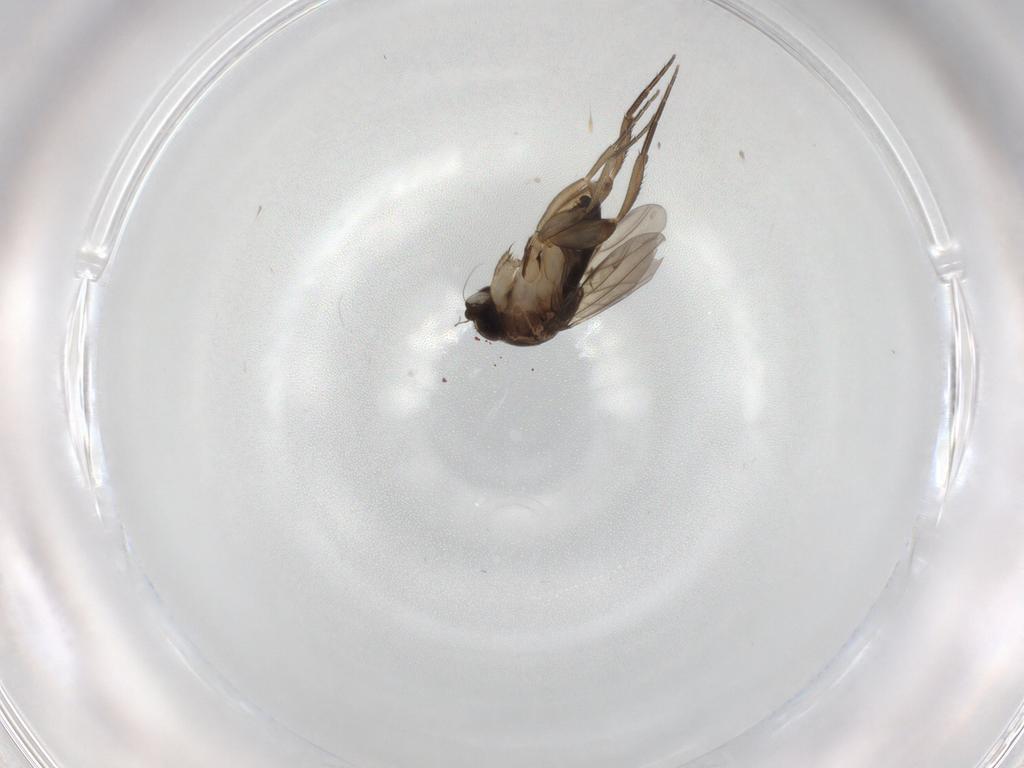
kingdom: Animalia
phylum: Arthropoda
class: Insecta
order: Diptera
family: Phoridae
